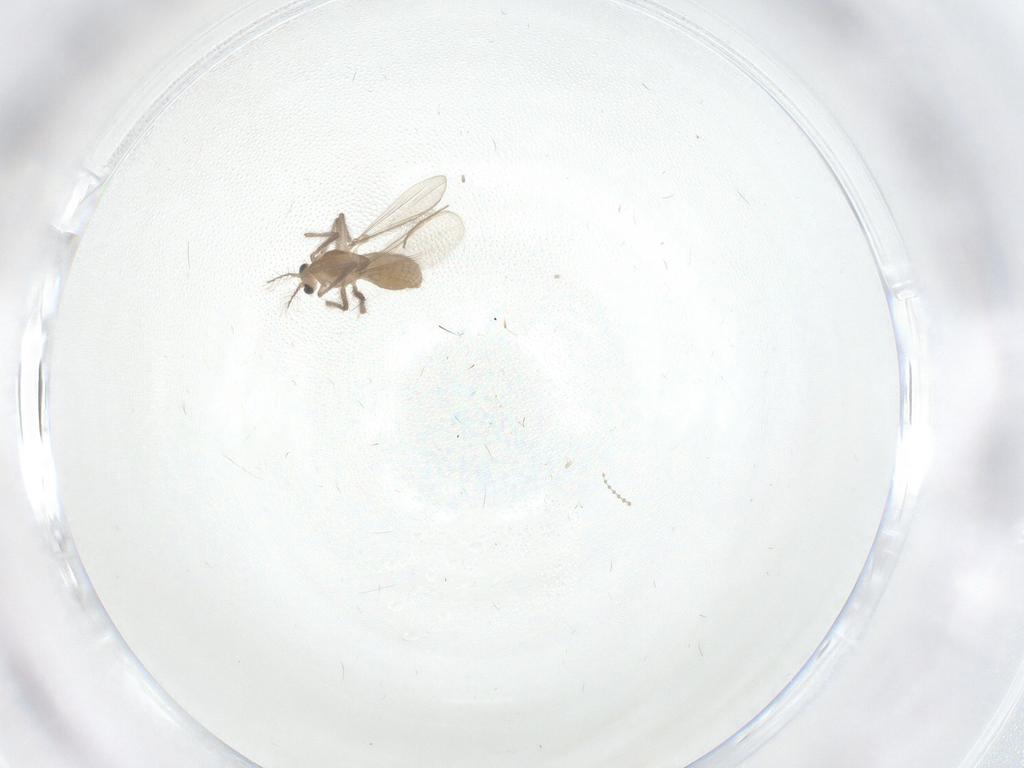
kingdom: Animalia
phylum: Arthropoda
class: Insecta
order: Diptera
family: Chironomidae
